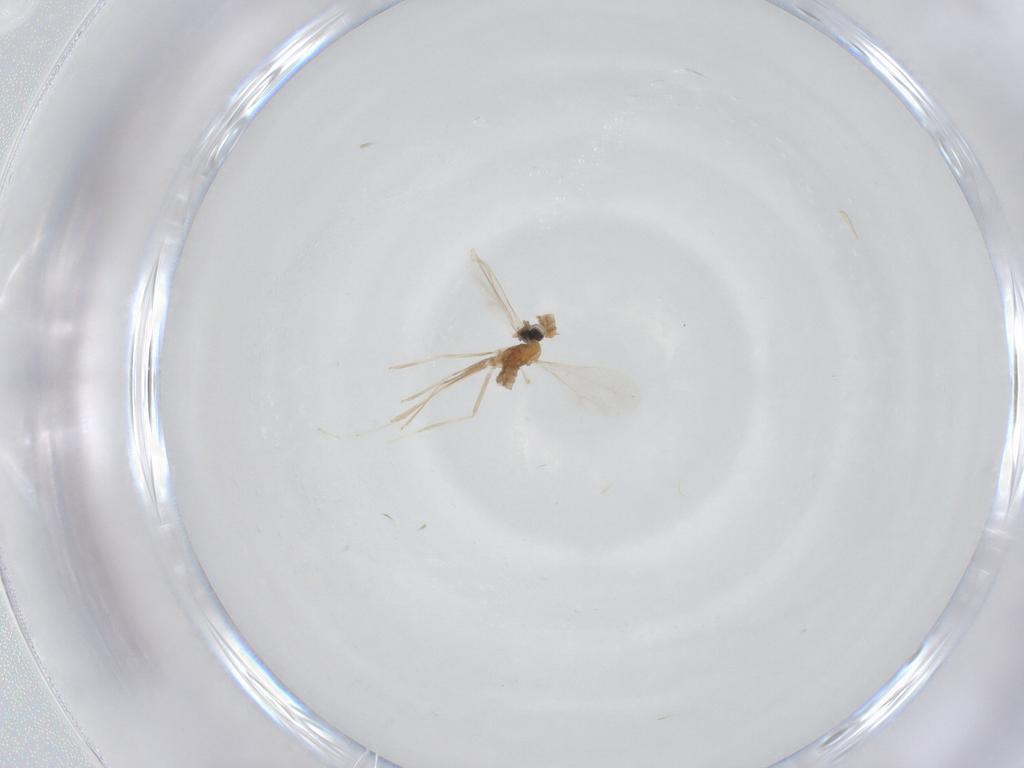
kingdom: Animalia
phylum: Arthropoda
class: Insecta
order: Diptera
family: Cecidomyiidae
